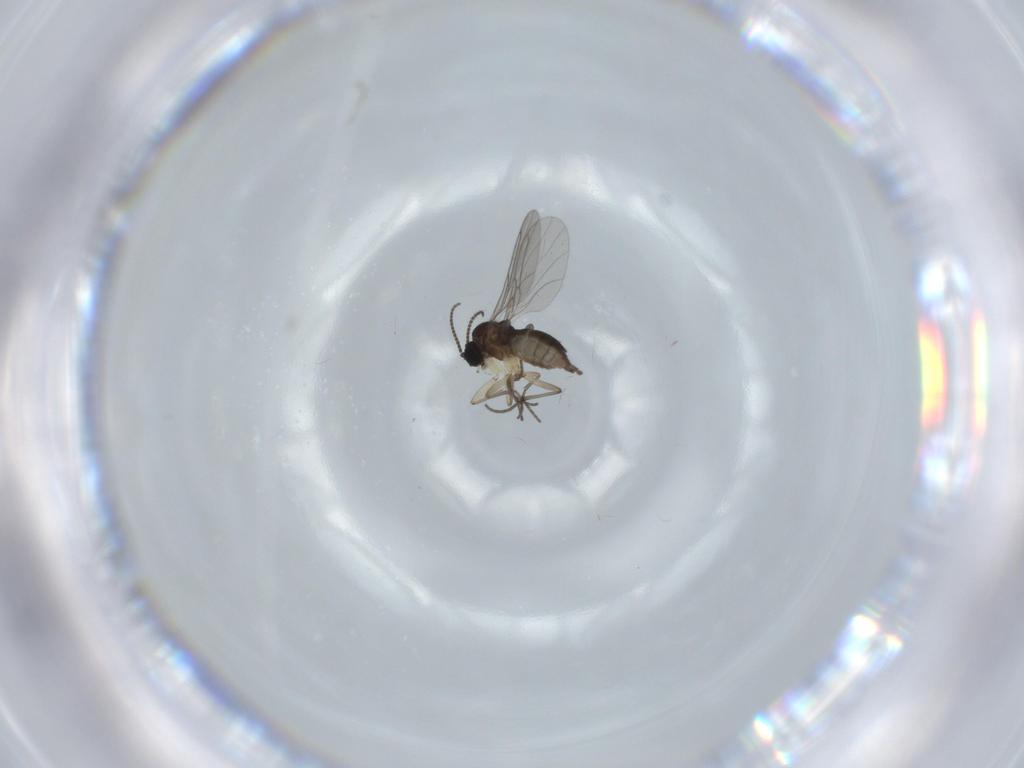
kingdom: Animalia
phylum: Arthropoda
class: Insecta
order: Diptera
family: Sciaridae
